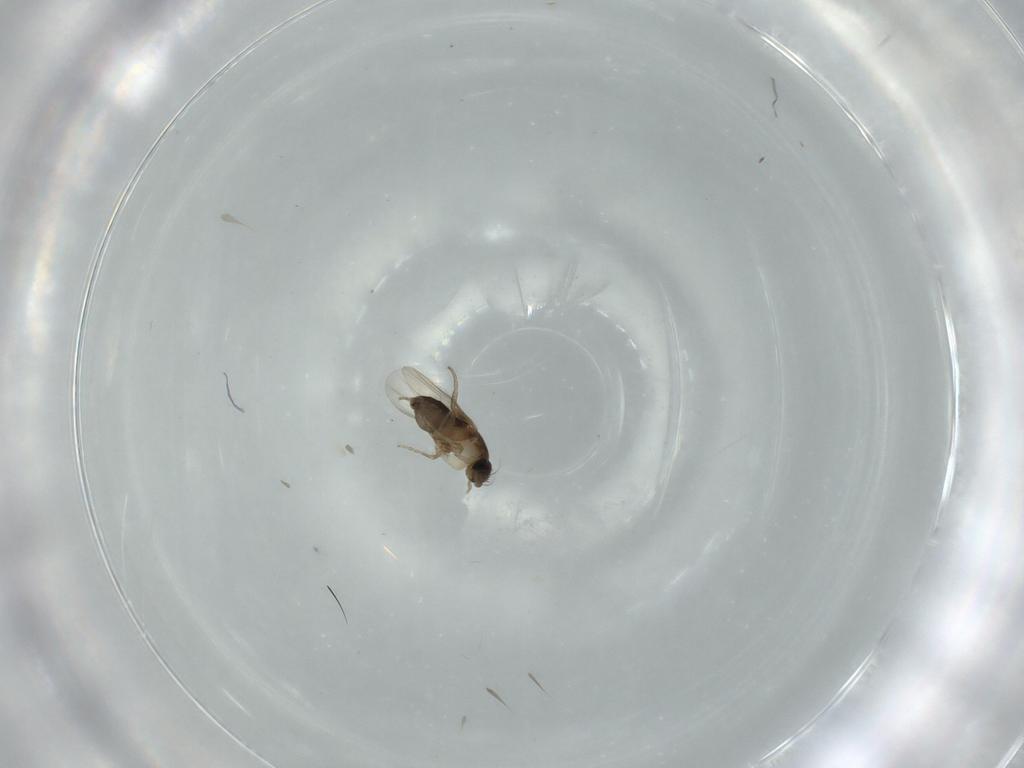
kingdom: Animalia
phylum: Arthropoda
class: Insecta
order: Diptera
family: Phoridae
